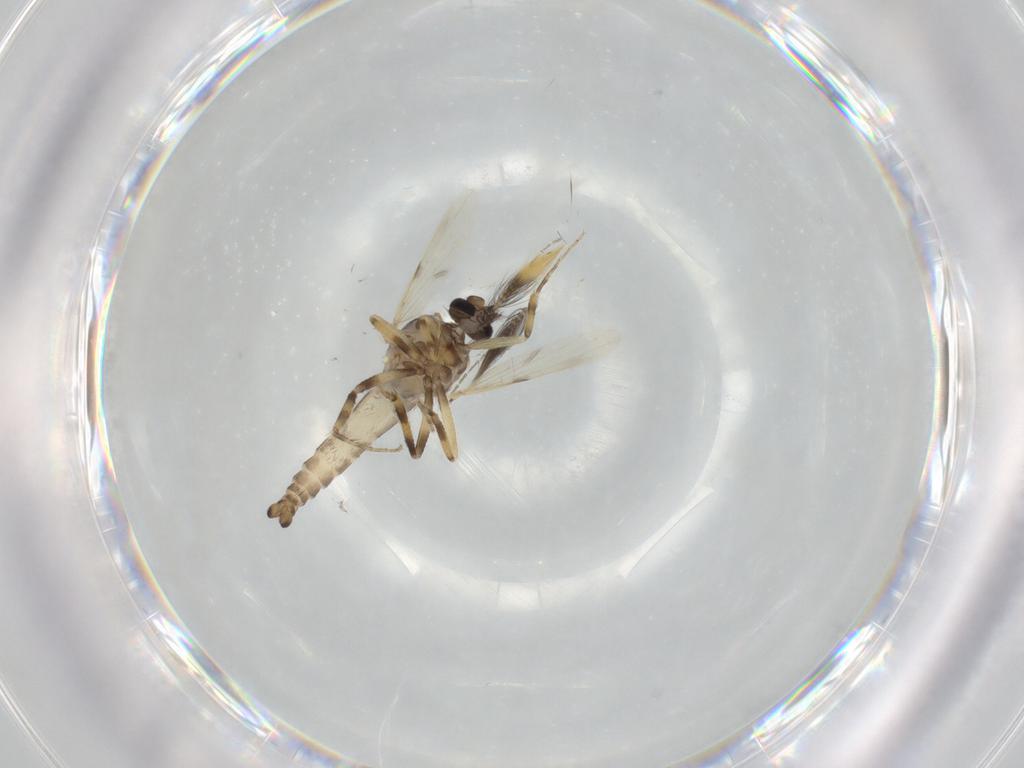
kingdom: Animalia
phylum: Arthropoda
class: Insecta
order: Diptera
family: Ceratopogonidae
